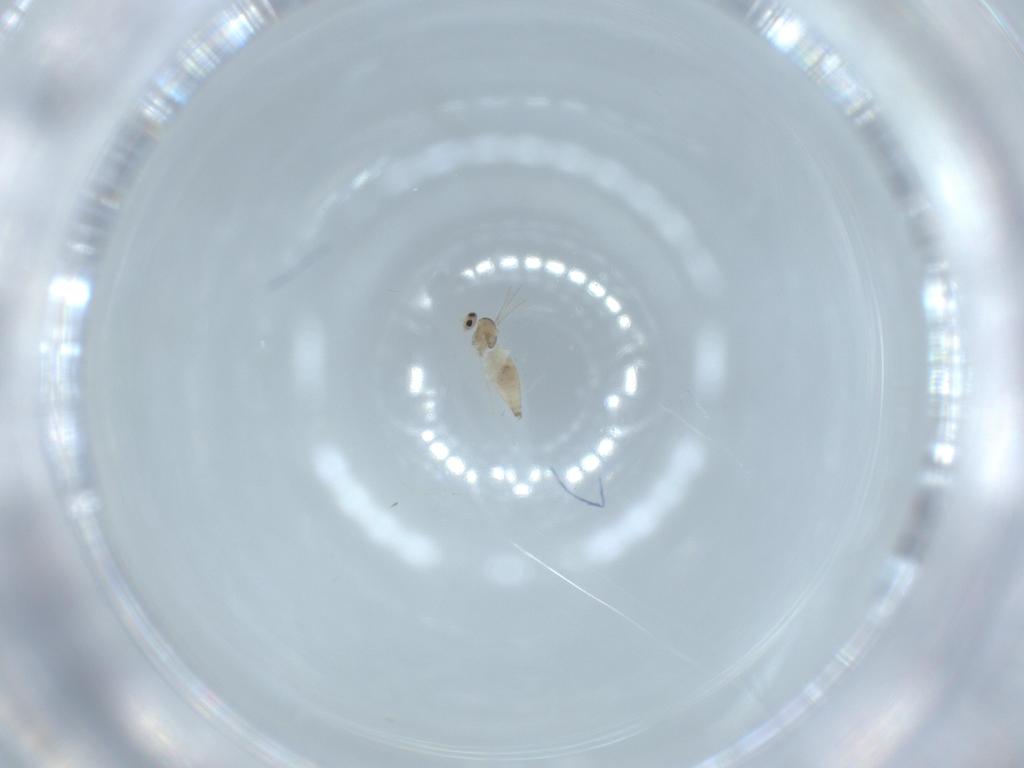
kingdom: Animalia
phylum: Arthropoda
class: Insecta
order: Diptera
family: Cecidomyiidae
